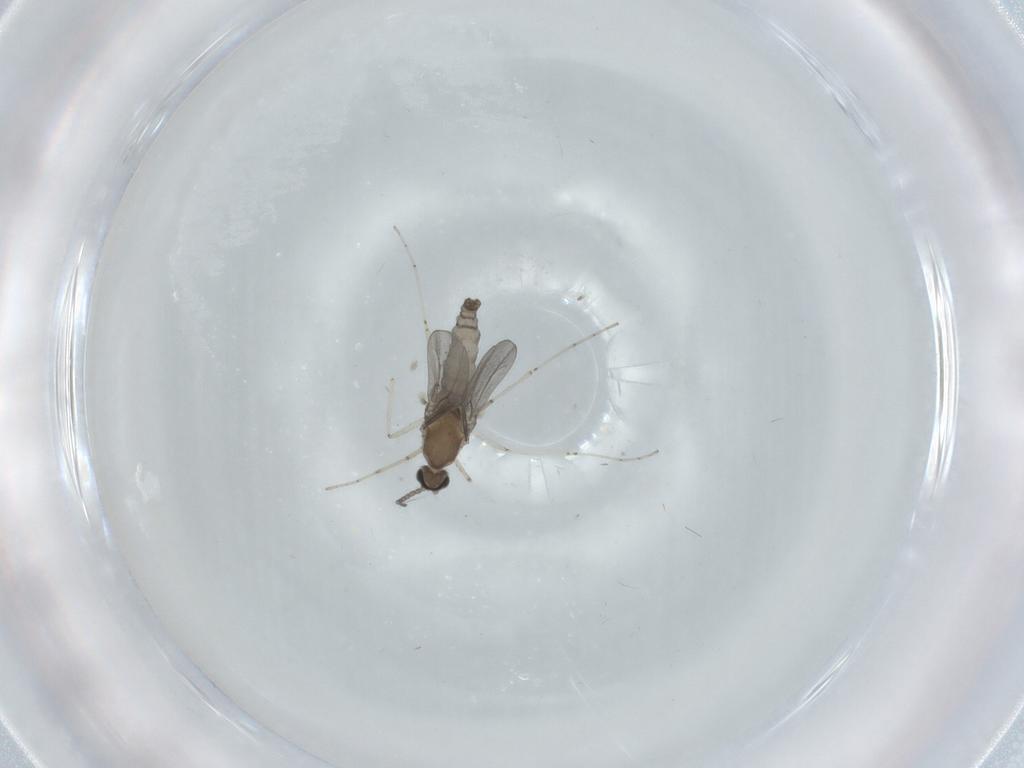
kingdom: Animalia
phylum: Arthropoda
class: Insecta
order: Diptera
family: Cecidomyiidae
